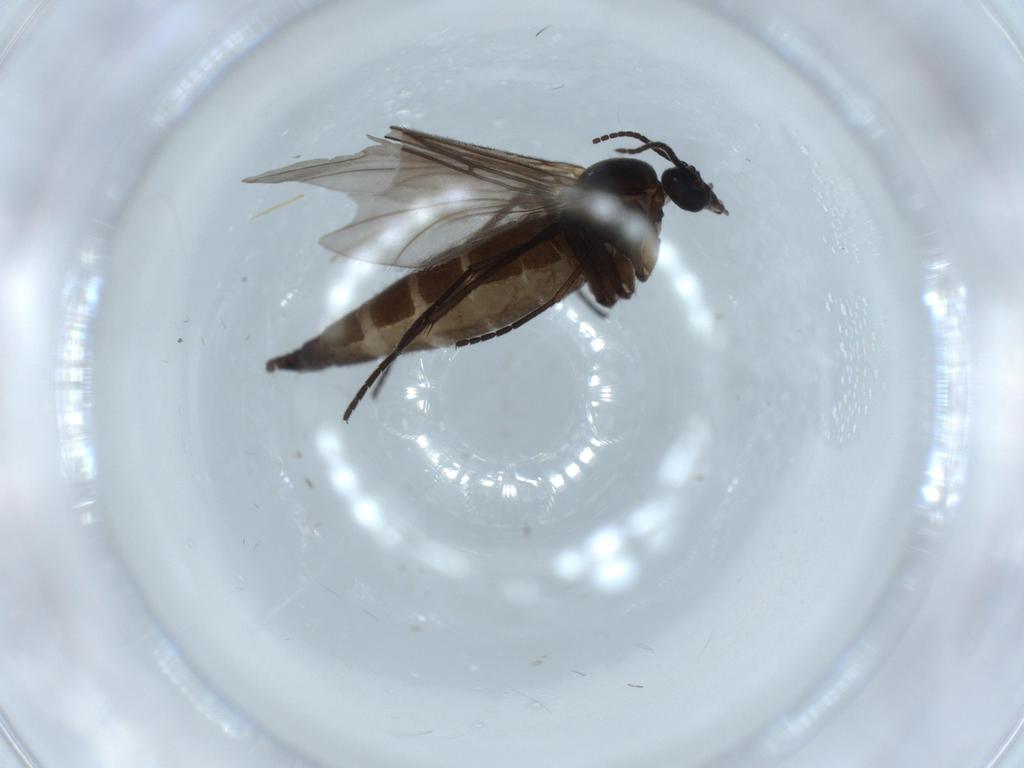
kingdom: Animalia
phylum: Arthropoda
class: Insecta
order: Diptera
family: Sciaridae
